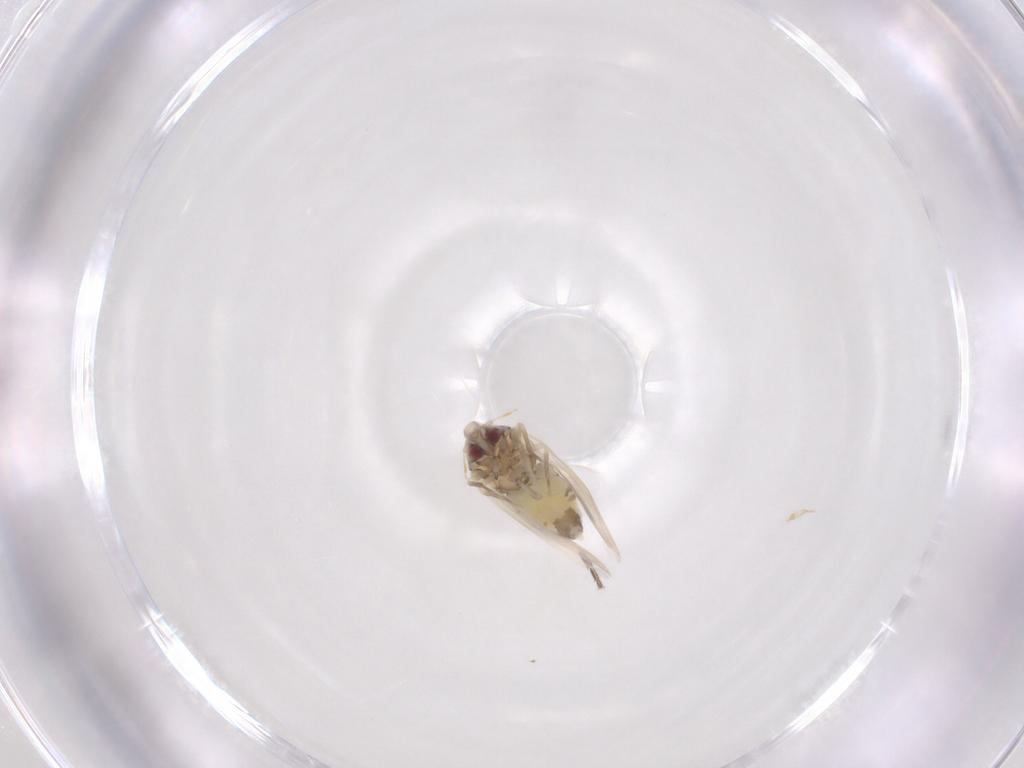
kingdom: Animalia
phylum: Arthropoda
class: Insecta
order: Hemiptera
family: Aleyrodidae
